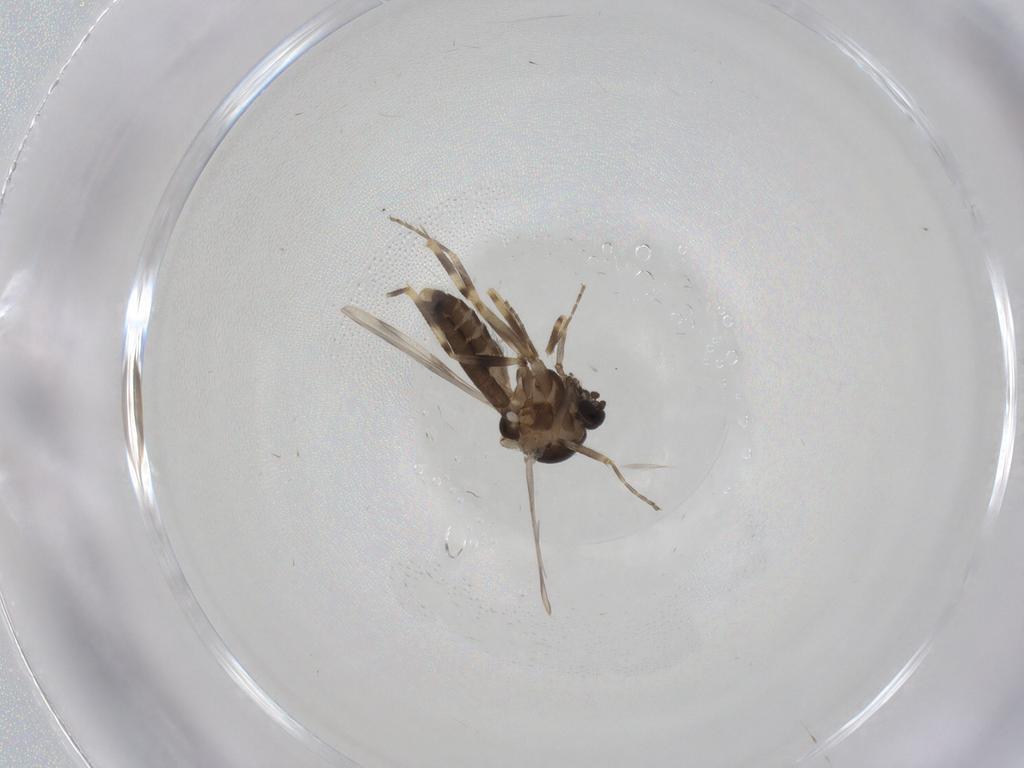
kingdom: Animalia
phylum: Arthropoda
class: Insecta
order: Diptera
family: Ceratopogonidae
